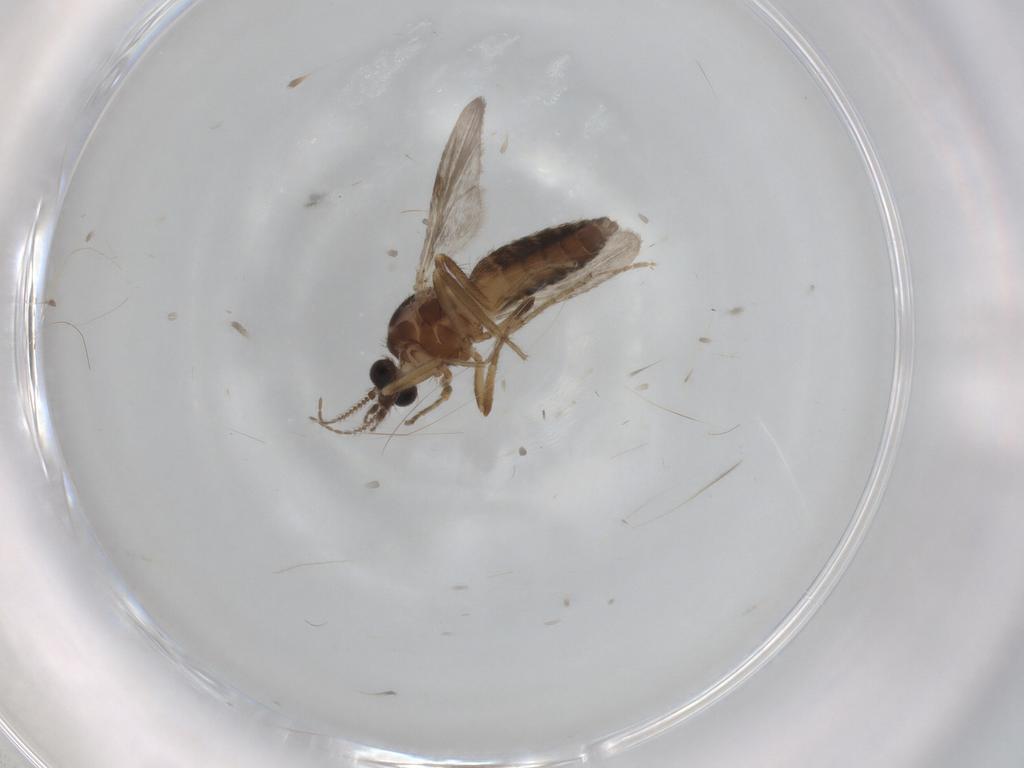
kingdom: Animalia
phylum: Arthropoda
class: Insecta
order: Diptera
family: Ceratopogonidae
